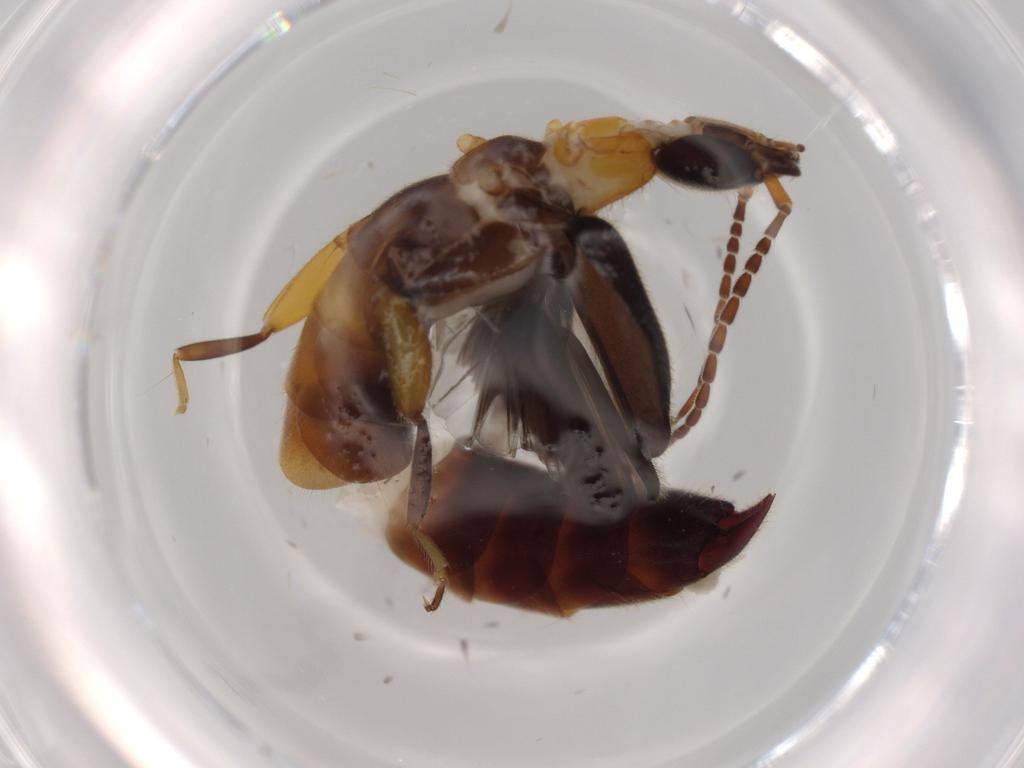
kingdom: Animalia
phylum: Arthropoda
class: Insecta
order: Dermaptera
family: Forficulidae
